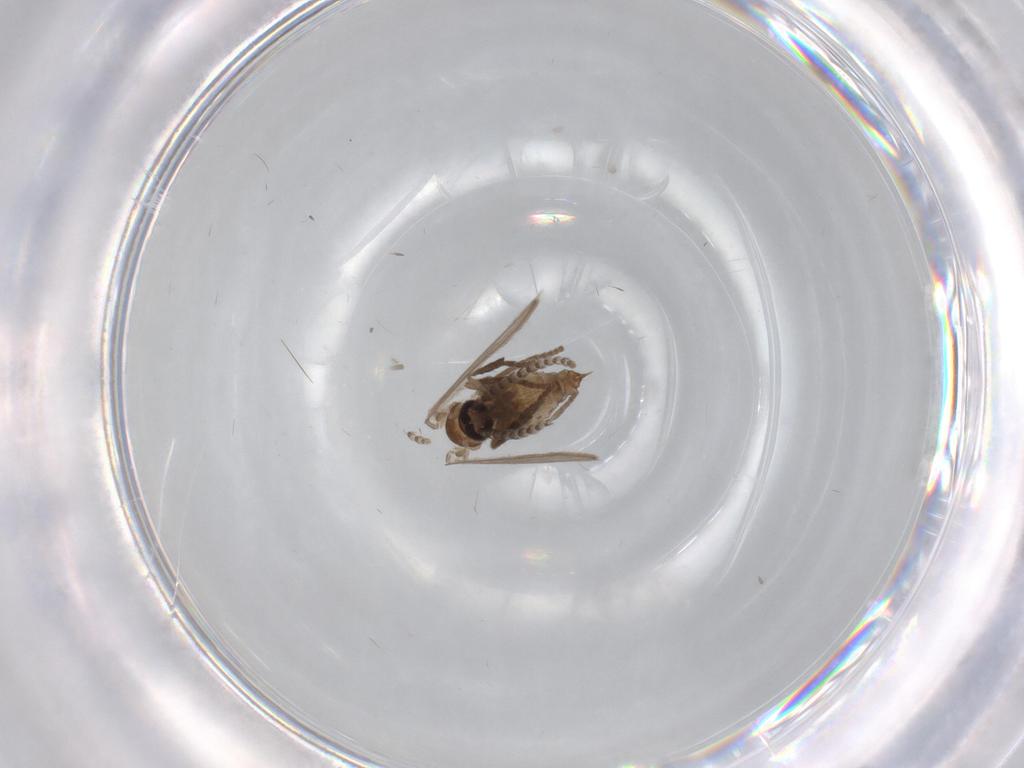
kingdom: Animalia
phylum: Arthropoda
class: Insecta
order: Diptera
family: Psychodidae
